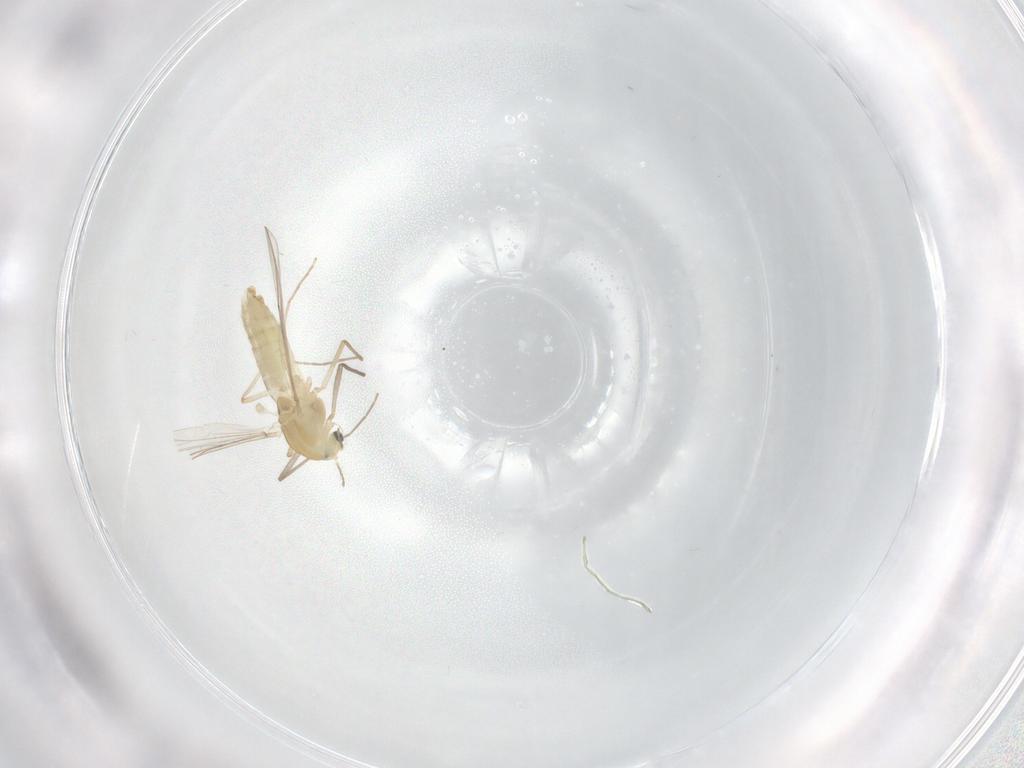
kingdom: Animalia
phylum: Arthropoda
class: Insecta
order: Diptera
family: Chironomidae
